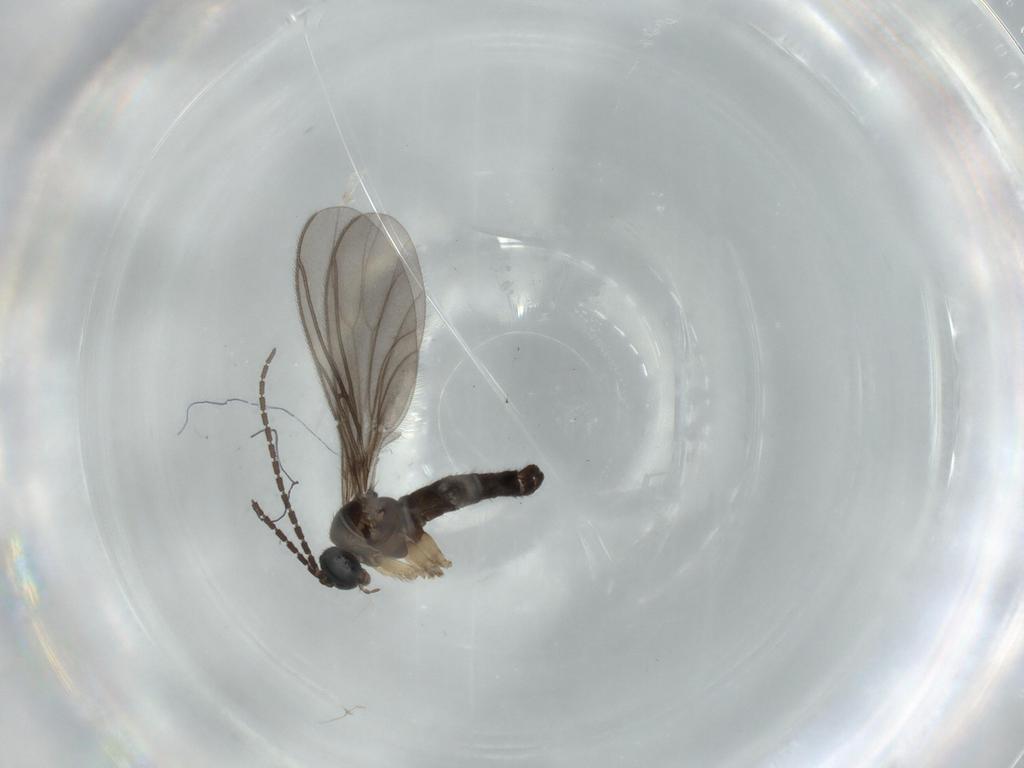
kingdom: Animalia
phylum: Arthropoda
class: Insecta
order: Diptera
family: Sciaridae
